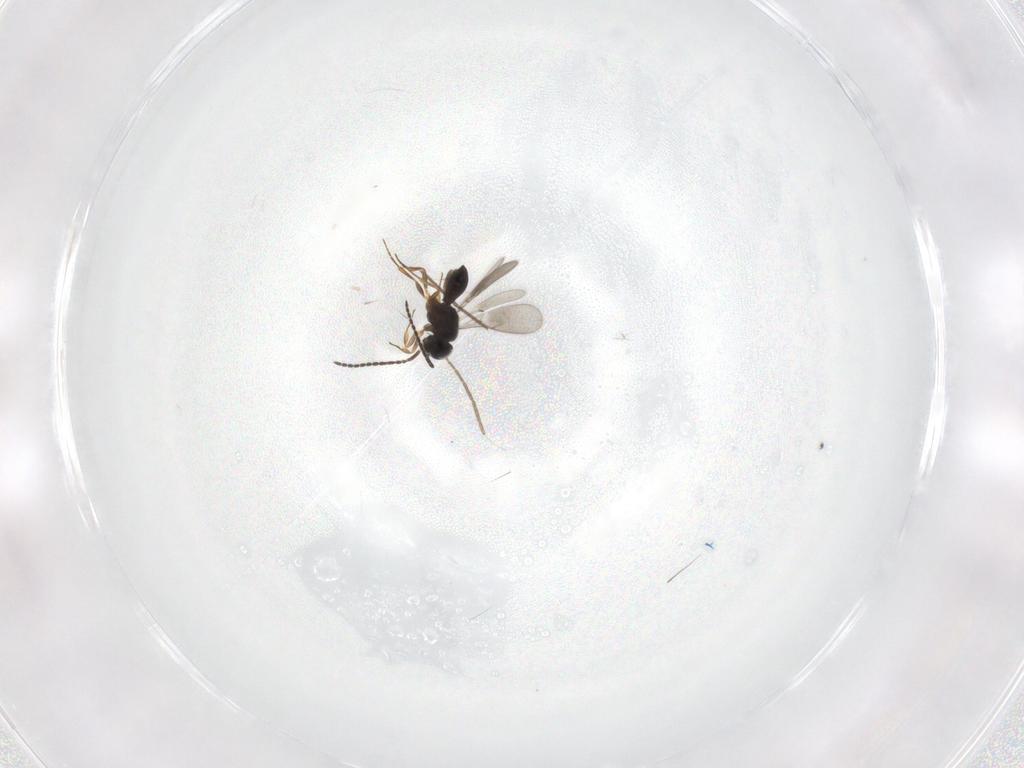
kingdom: Animalia
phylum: Arthropoda
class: Insecta
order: Hymenoptera
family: Scelionidae
